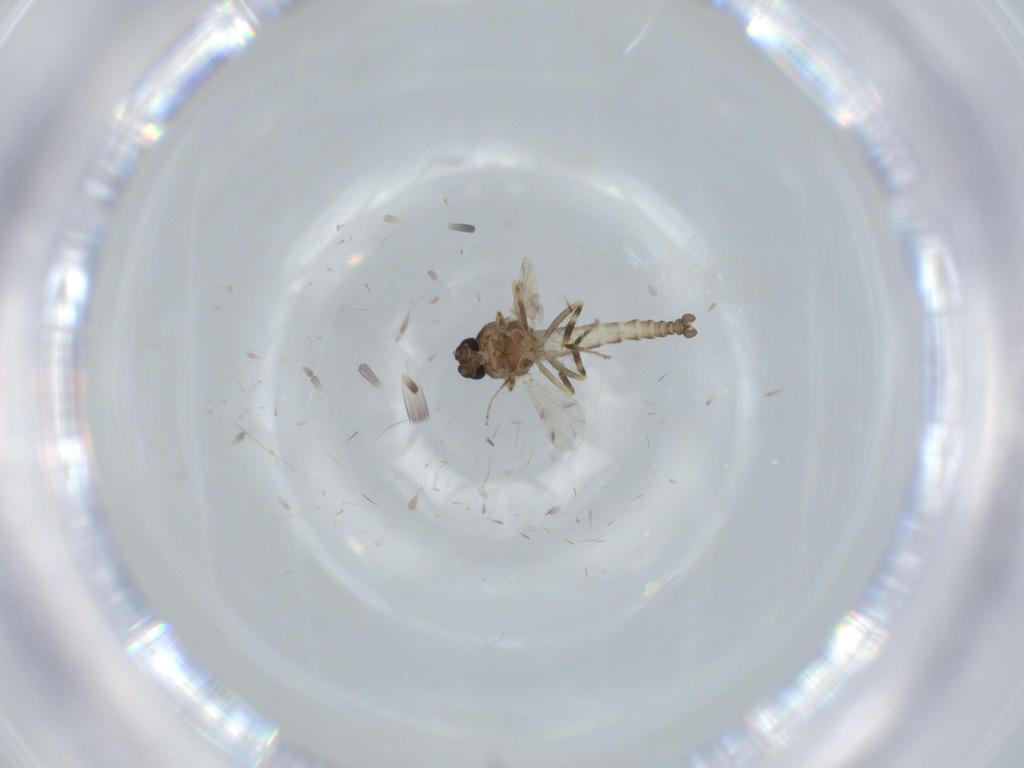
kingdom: Animalia
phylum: Arthropoda
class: Insecta
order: Diptera
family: Ceratopogonidae
